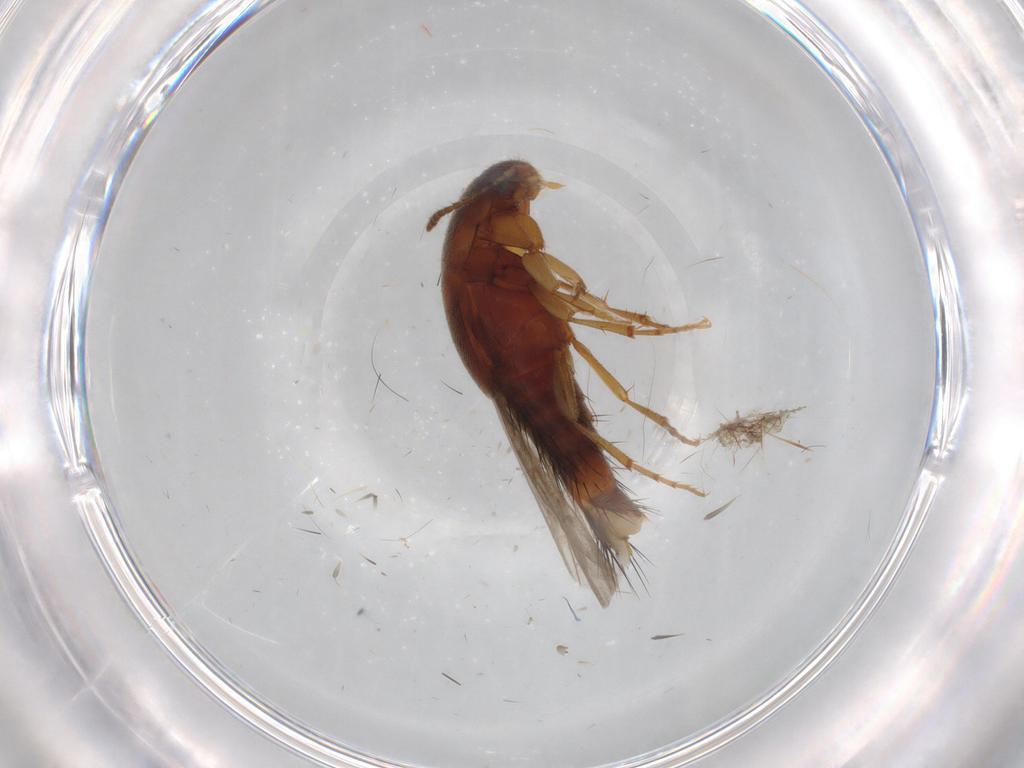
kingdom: Animalia
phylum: Arthropoda
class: Insecta
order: Coleoptera
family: Staphylinidae
